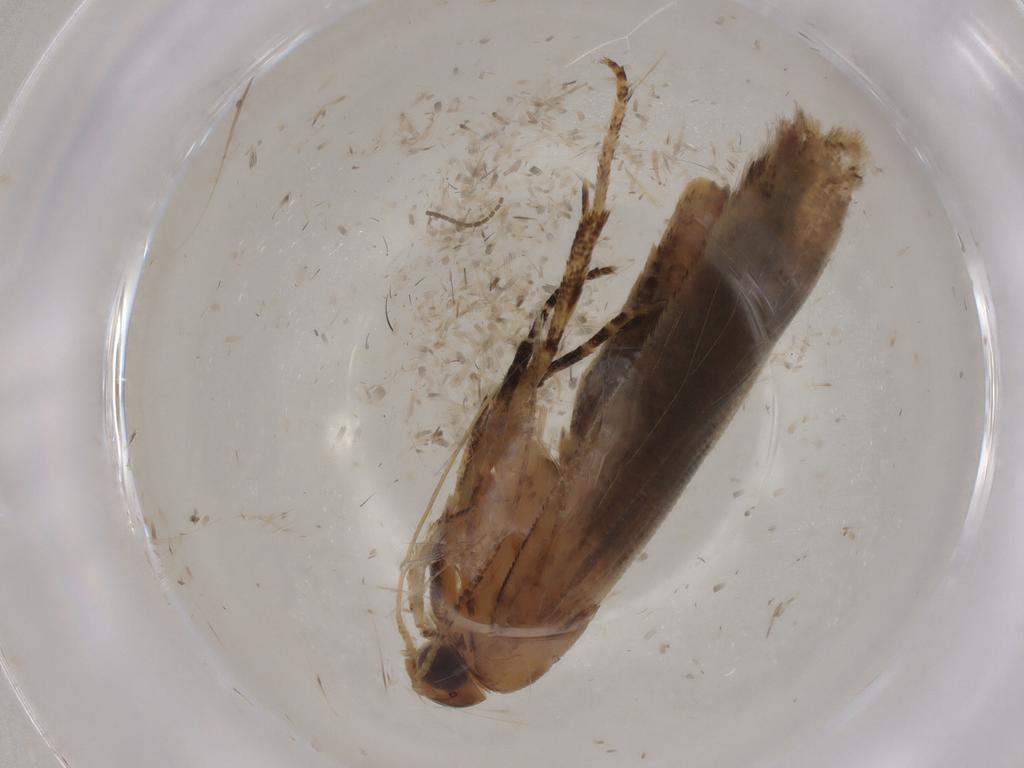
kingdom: Animalia
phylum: Arthropoda
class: Insecta
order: Lepidoptera
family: Gelechiidae
